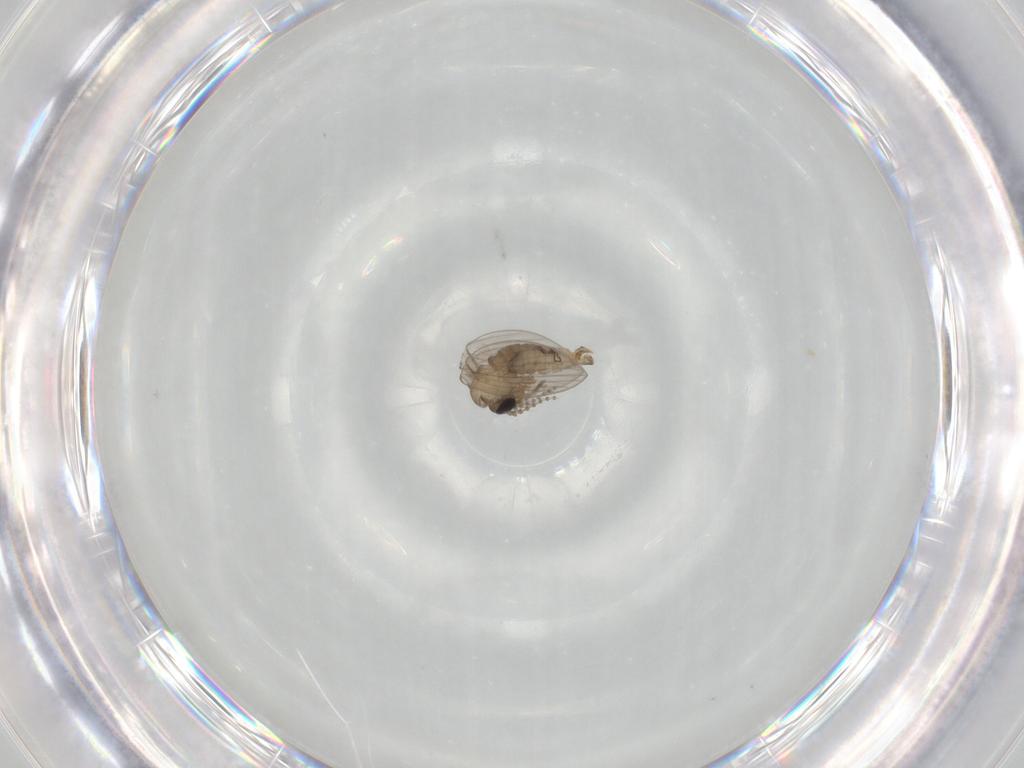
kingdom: Animalia
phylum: Arthropoda
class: Insecta
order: Diptera
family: Psychodidae
